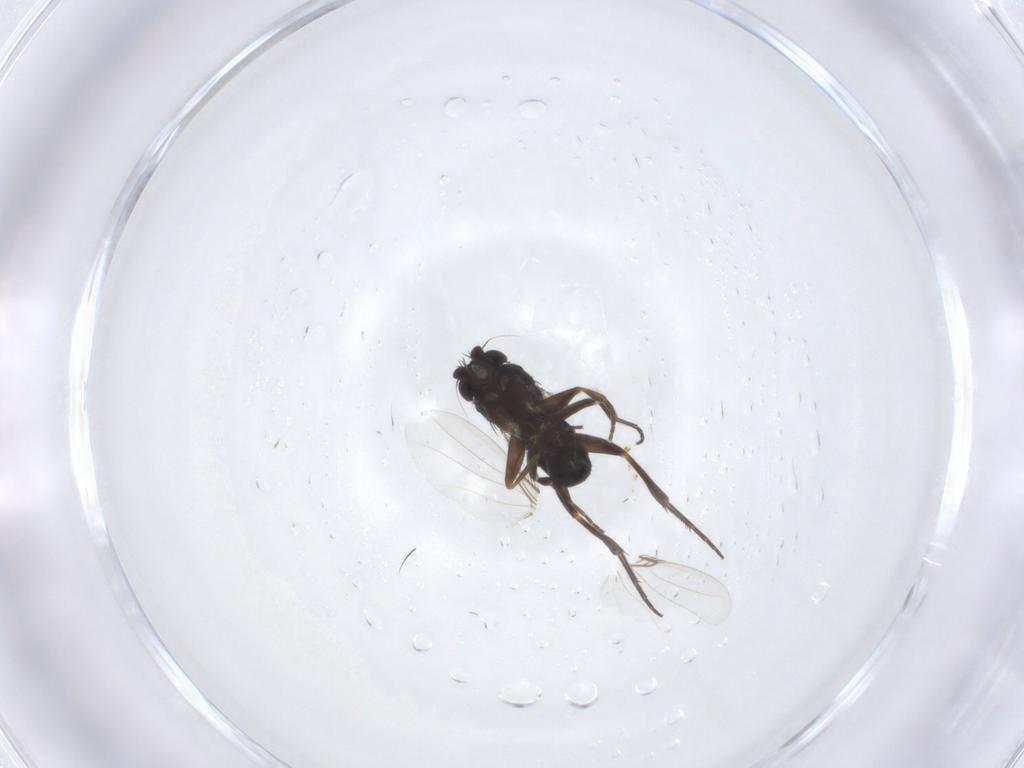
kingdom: Animalia
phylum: Arthropoda
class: Insecta
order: Diptera
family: Phoridae
